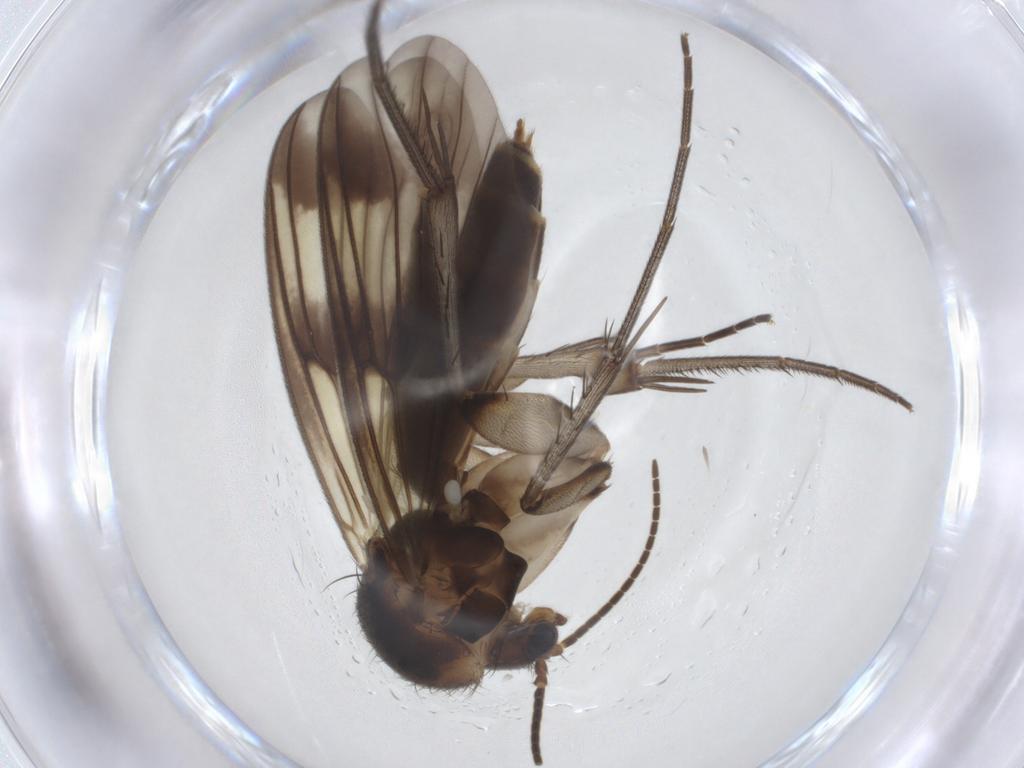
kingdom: Animalia
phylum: Arthropoda
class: Insecta
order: Diptera
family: Mycetophilidae
